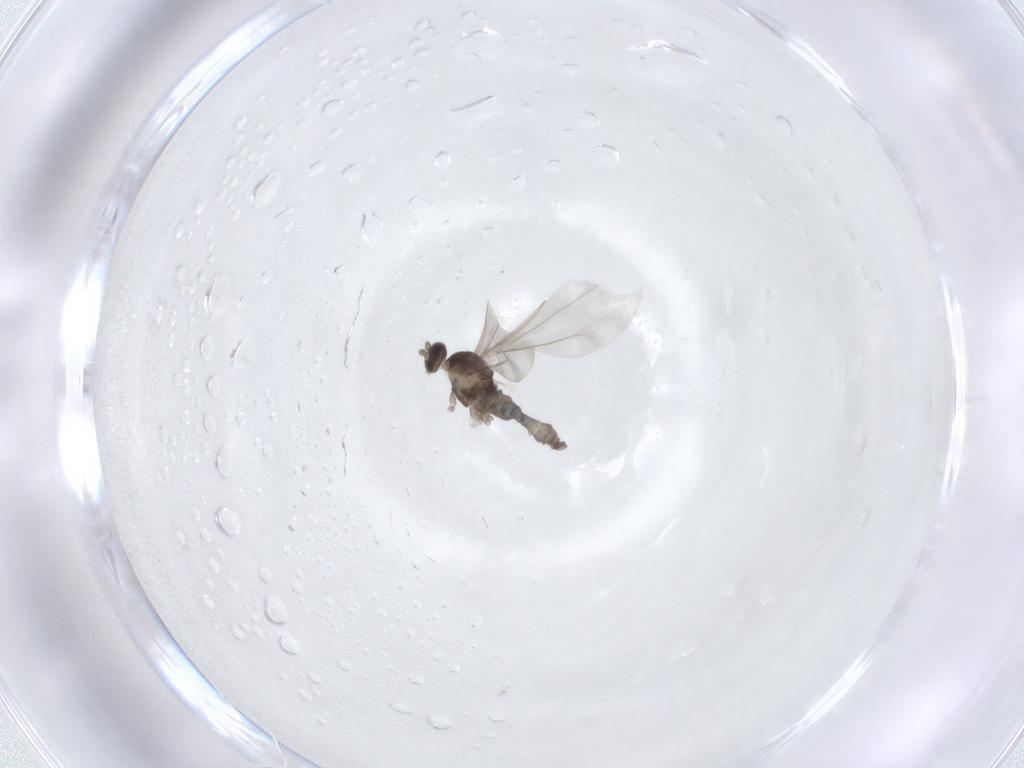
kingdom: Animalia
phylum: Arthropoda
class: Insecta
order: Diptera
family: Cecidomyiidae
